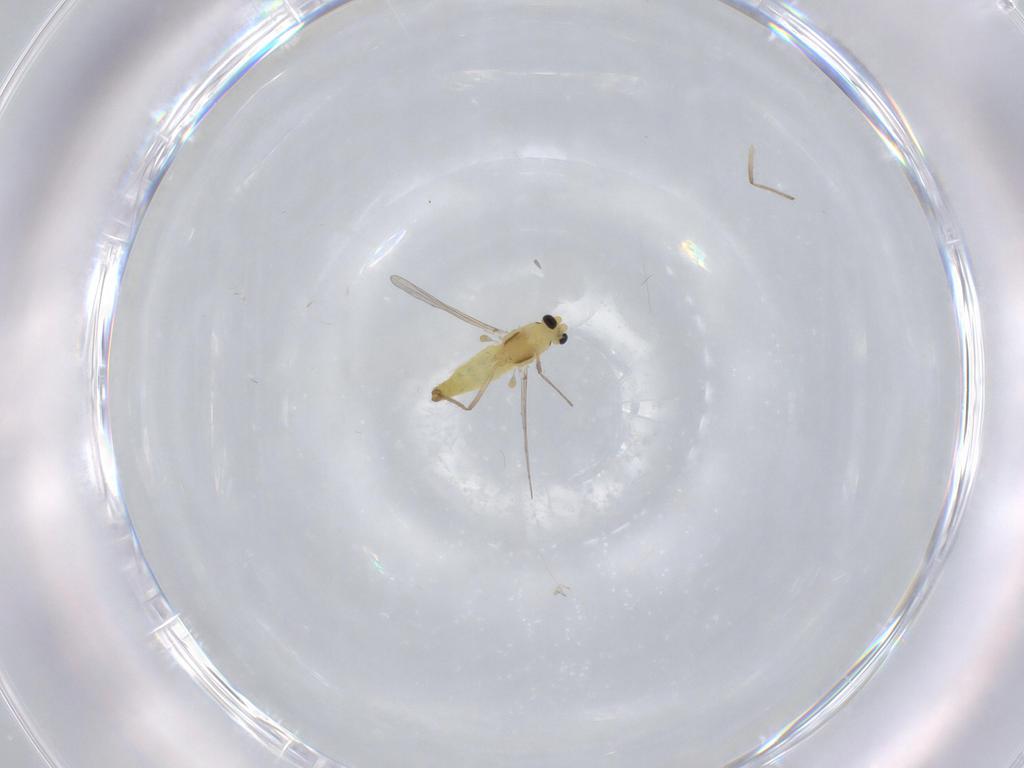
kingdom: Animalia
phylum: Arthropoda
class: Insecta
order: Diptera
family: Chironomidae
